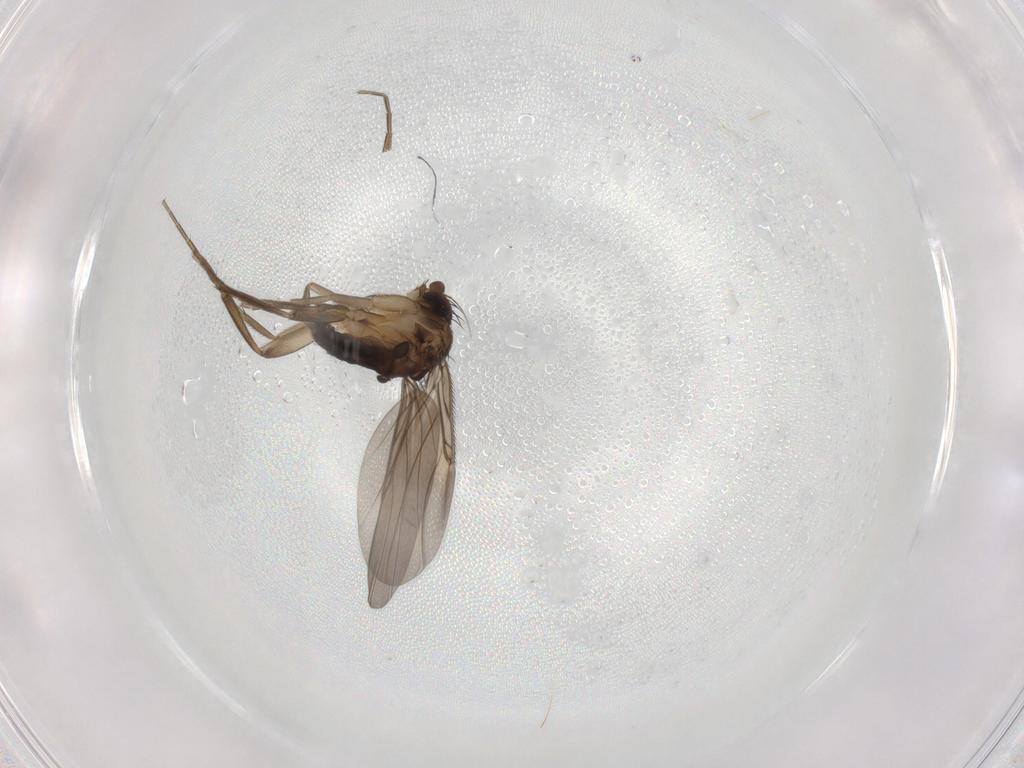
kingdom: Animalia
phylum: Arthropoda
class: Insecta
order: Diptera
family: Phoridae
